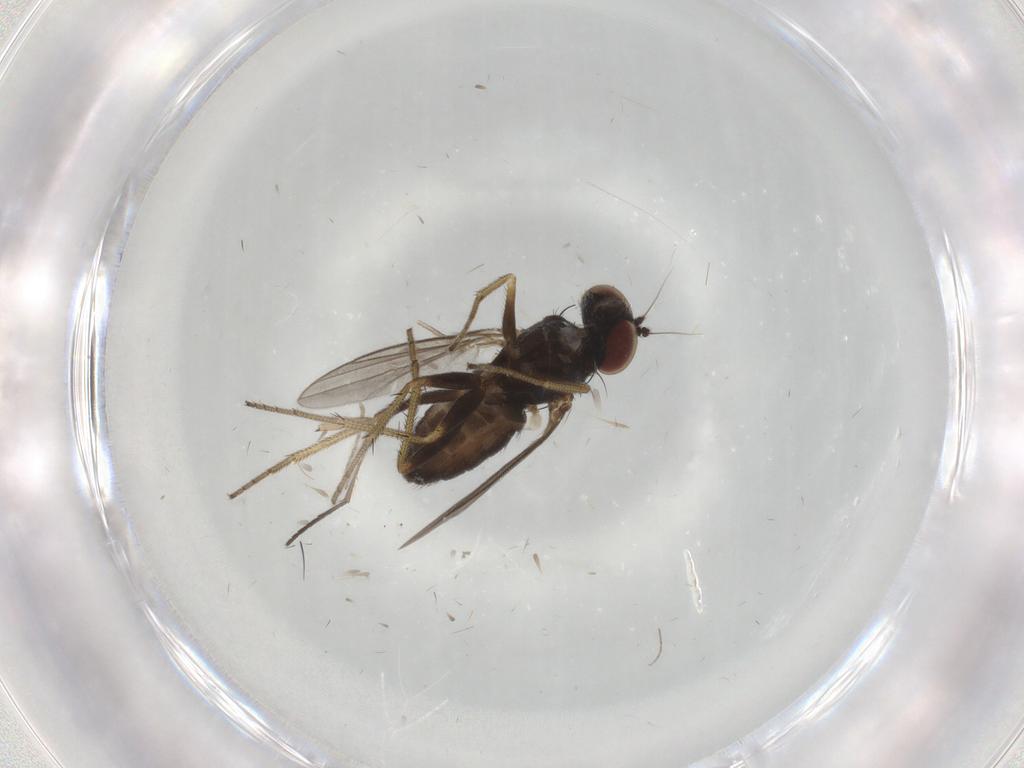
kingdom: Animalia
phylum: Arthropoda
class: Insecta
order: Diptera
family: Sciaridae
